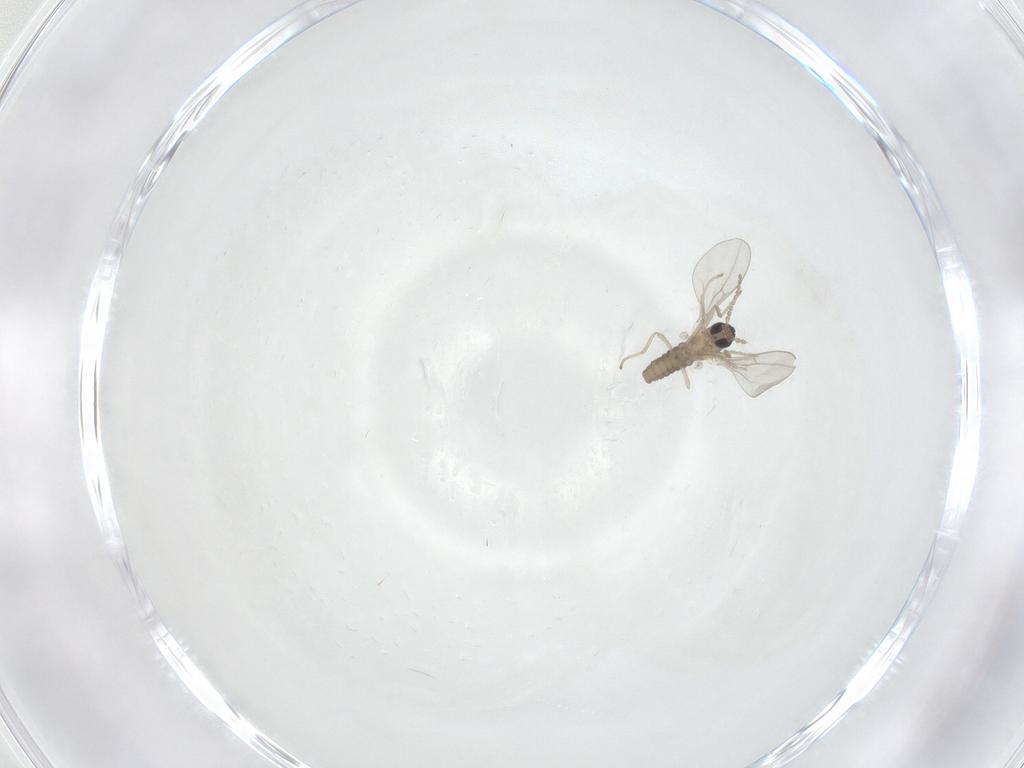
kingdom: Animalia
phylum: Arthropoda
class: Insecta
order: Diptera
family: Cecidomyiidae
